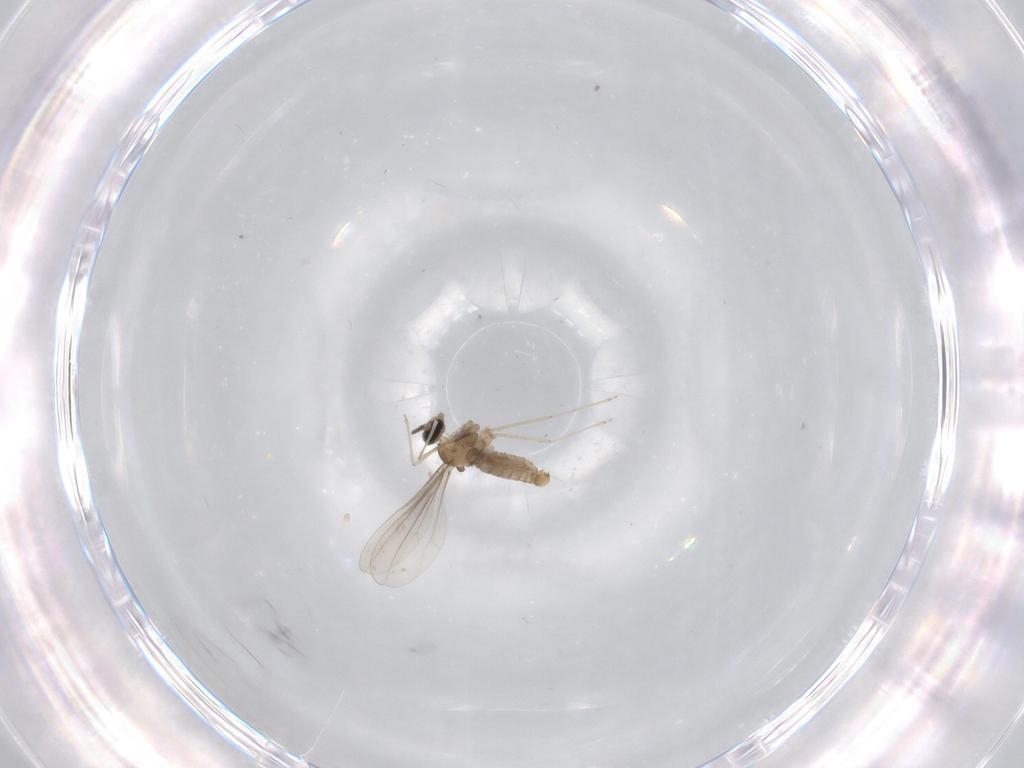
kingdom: Animalia
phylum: Arthropoda
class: Insecta
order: Diptera
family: Cecidomyiidae
